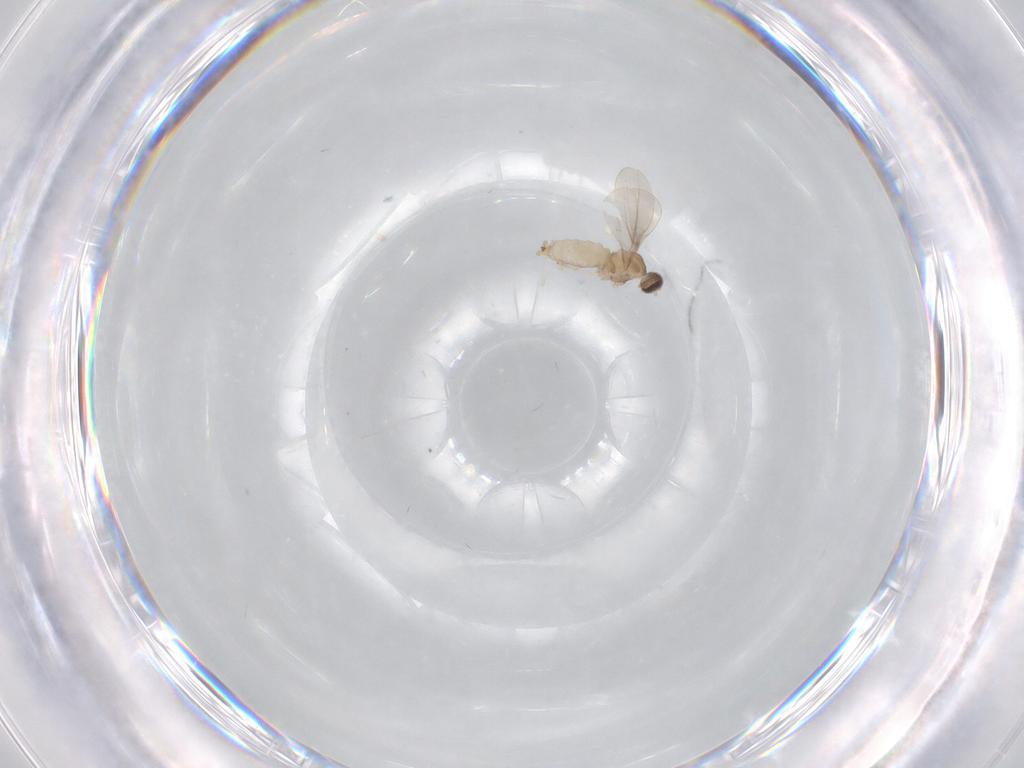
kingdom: Animalia
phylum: Arthropoda
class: Insecta
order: Diptera
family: Cecidomyiidae
